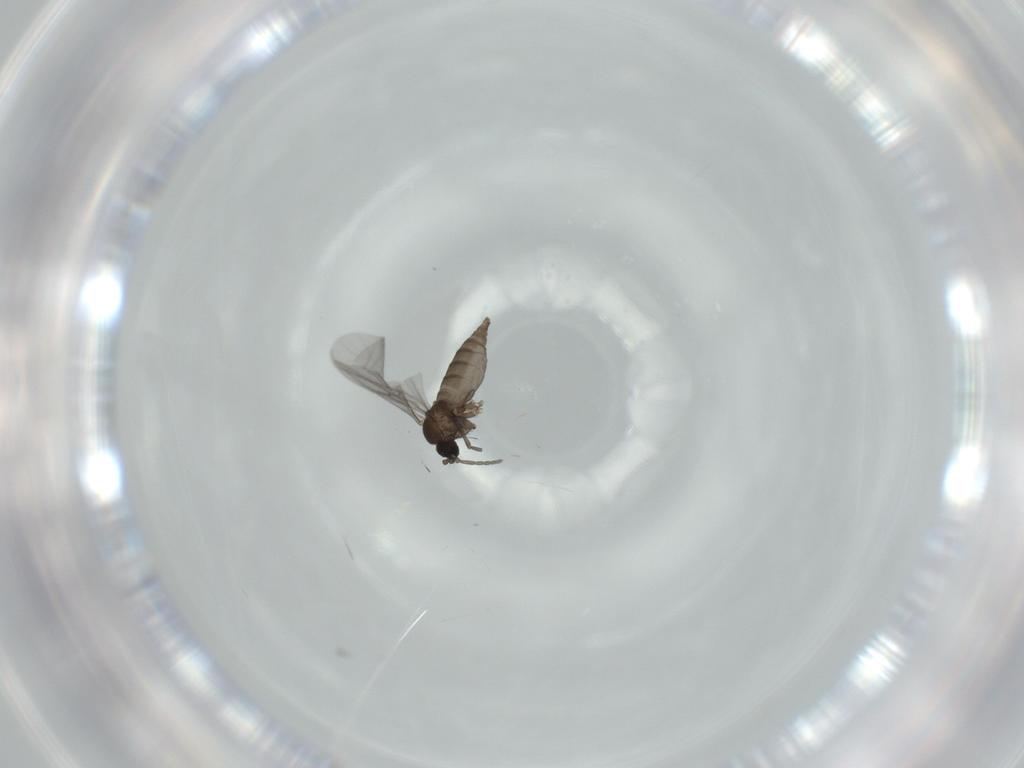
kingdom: Animalia
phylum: Arthropoda
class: Insecta
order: Diptera
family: Sciaridae
